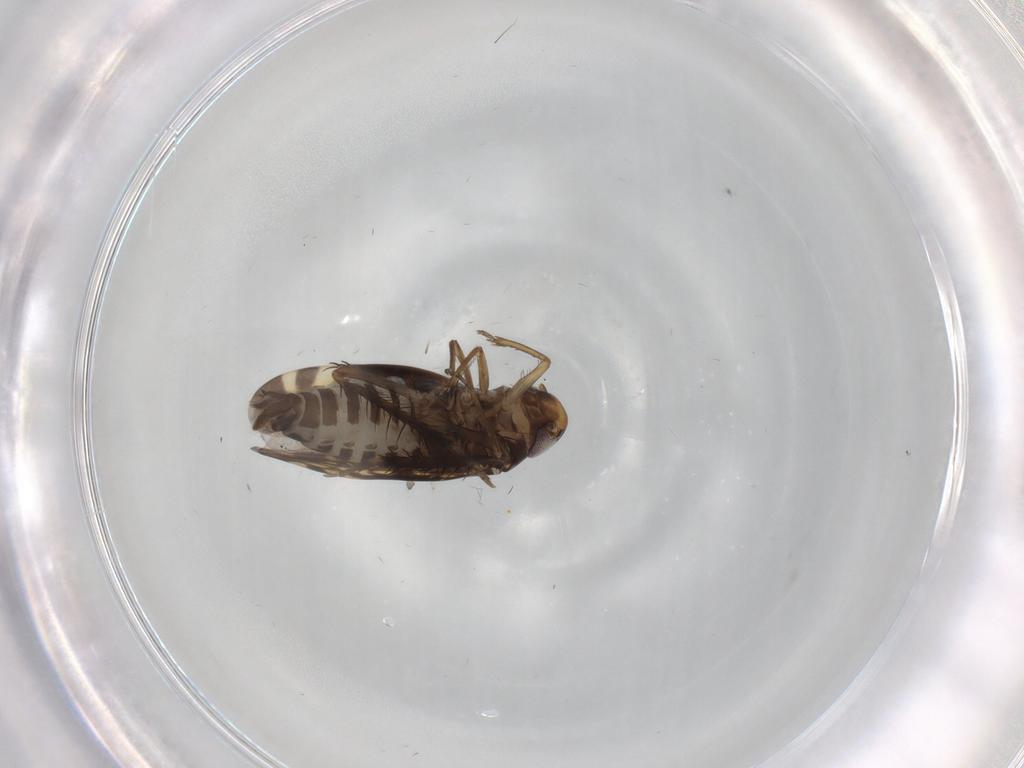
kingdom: Animalia
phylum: Arthropoda
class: Insecta
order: Hemiptera
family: Cicadellidae
